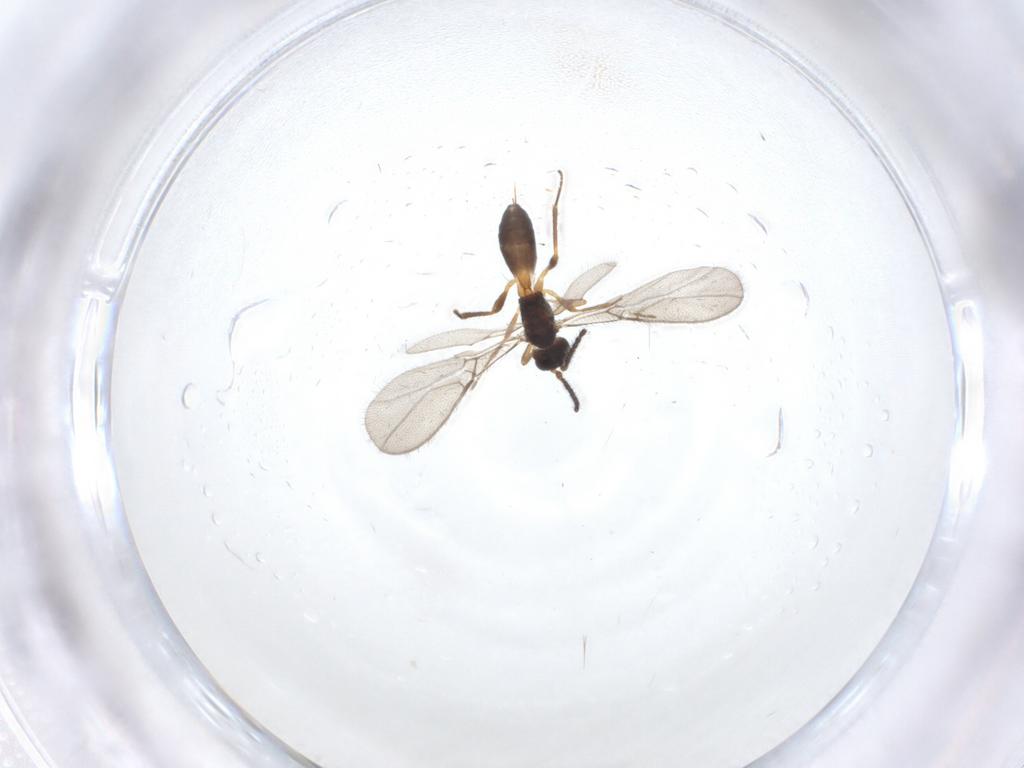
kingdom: Animalia
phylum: Arthropoda
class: Insecta
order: Hymenoptera
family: Braconidae
